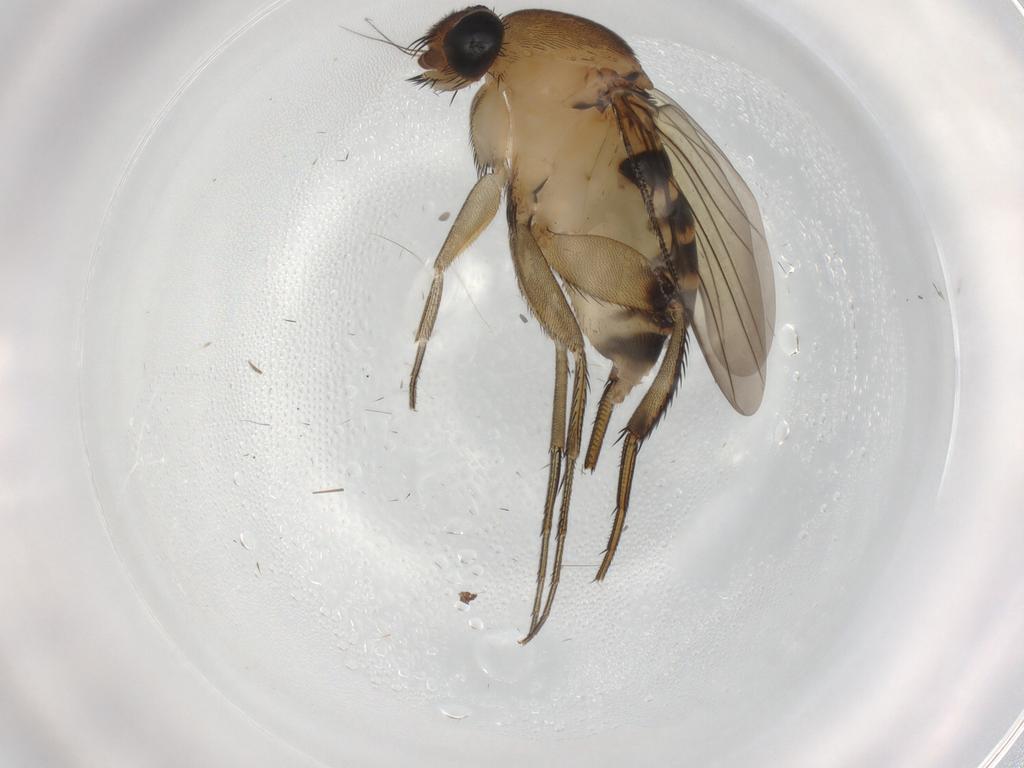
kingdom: Animalia
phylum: Arthropoda
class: Insecta
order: Diptera
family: Phoridae
